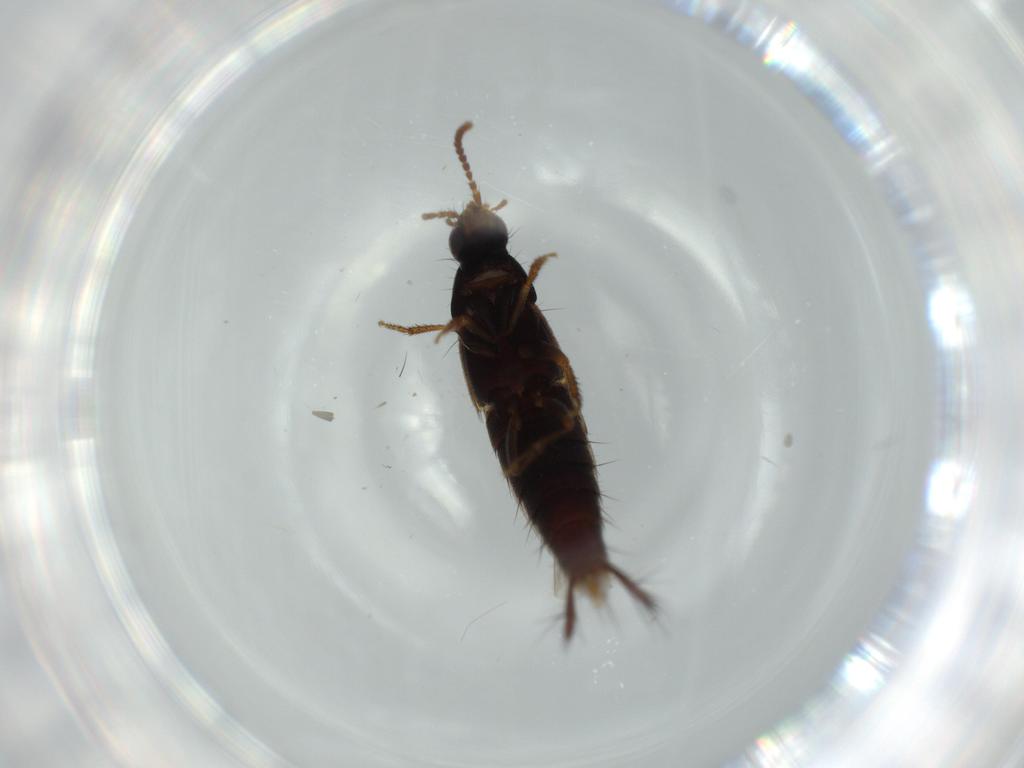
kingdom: Animalia
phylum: Arthropoda
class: Insecta
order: Coleoptera
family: Staphylinidae
